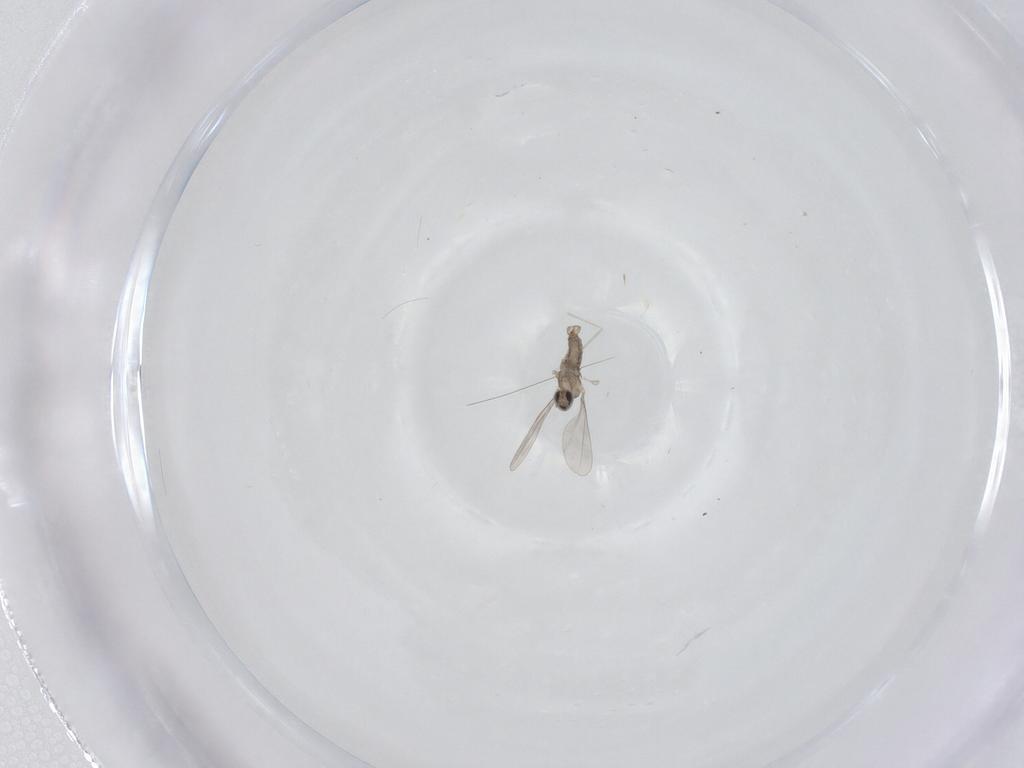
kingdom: Animalia
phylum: Arthropoda
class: Insecta
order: Diptera
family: Cecidomyiidae
